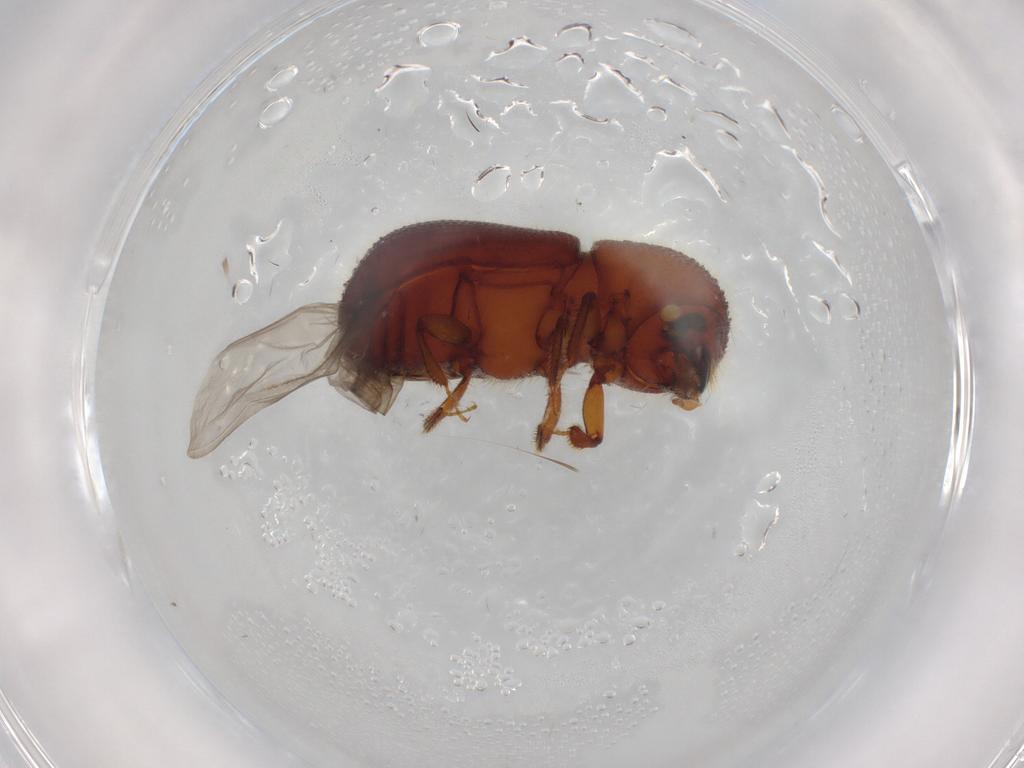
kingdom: Animalia
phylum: Arthropoda
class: Insecta
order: Coleoptera
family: Curculionidae
